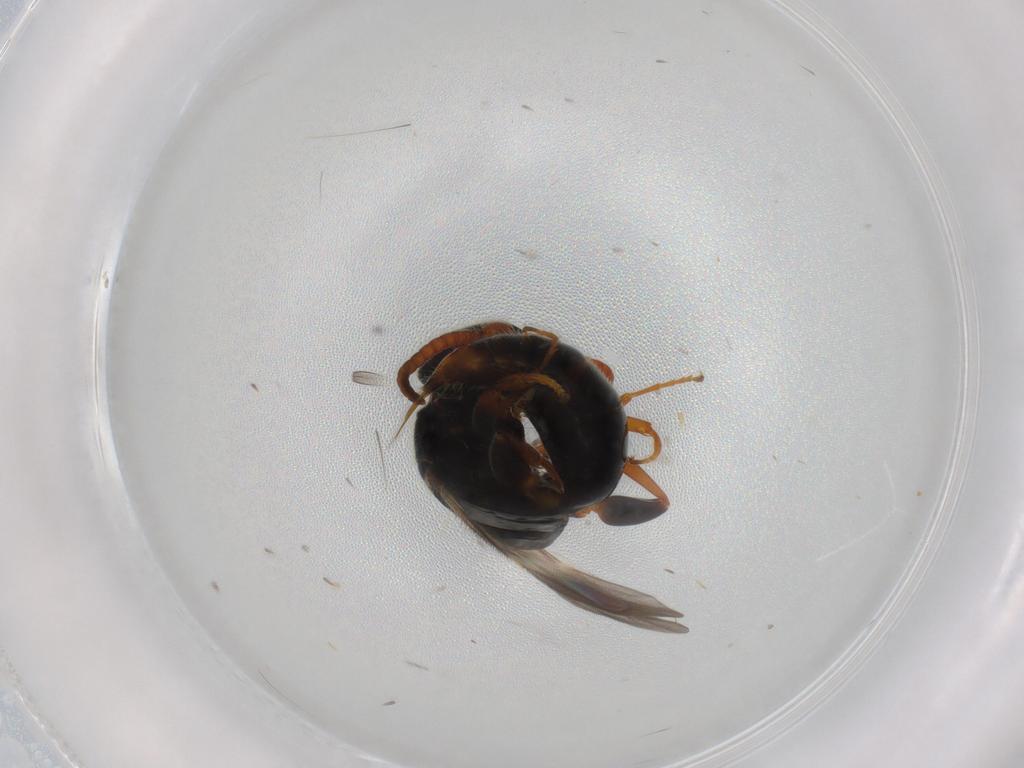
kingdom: Animalia
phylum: Arthropoda
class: Insecta
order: Hymenoptera
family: Bethylidae
